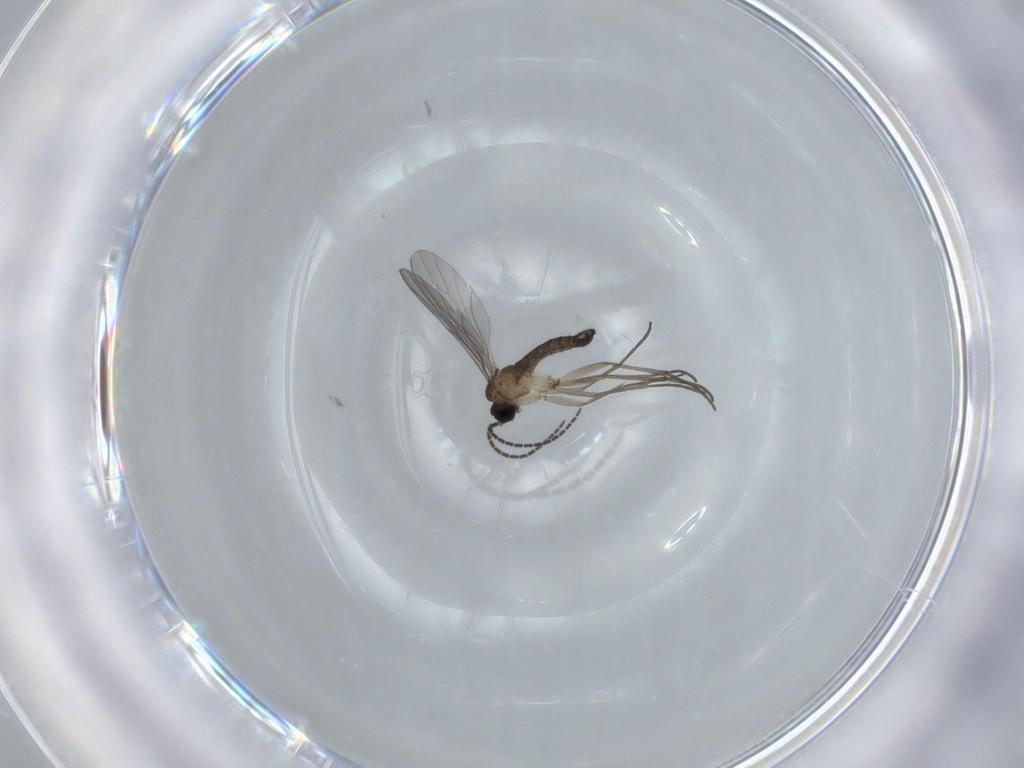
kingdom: Animalia
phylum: Arthropoda
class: Insecta
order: Diptera
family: Sciaridae
